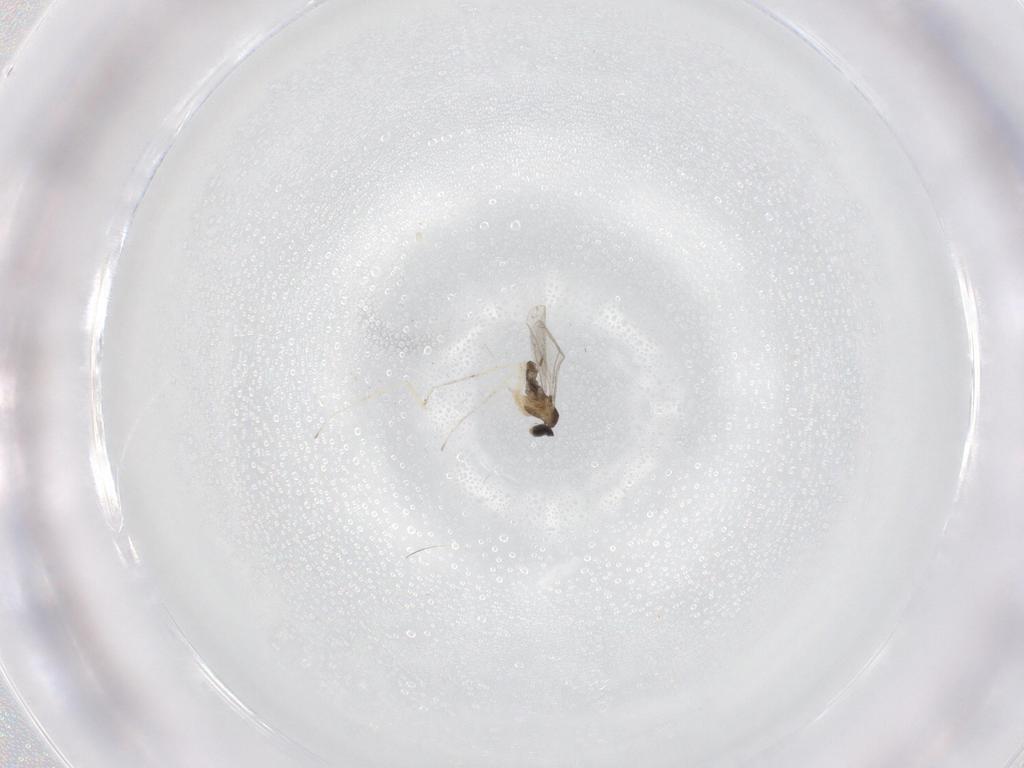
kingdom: Animalia
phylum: Arthropoda
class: Insecta
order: Diptera
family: Cecidomyiidae
